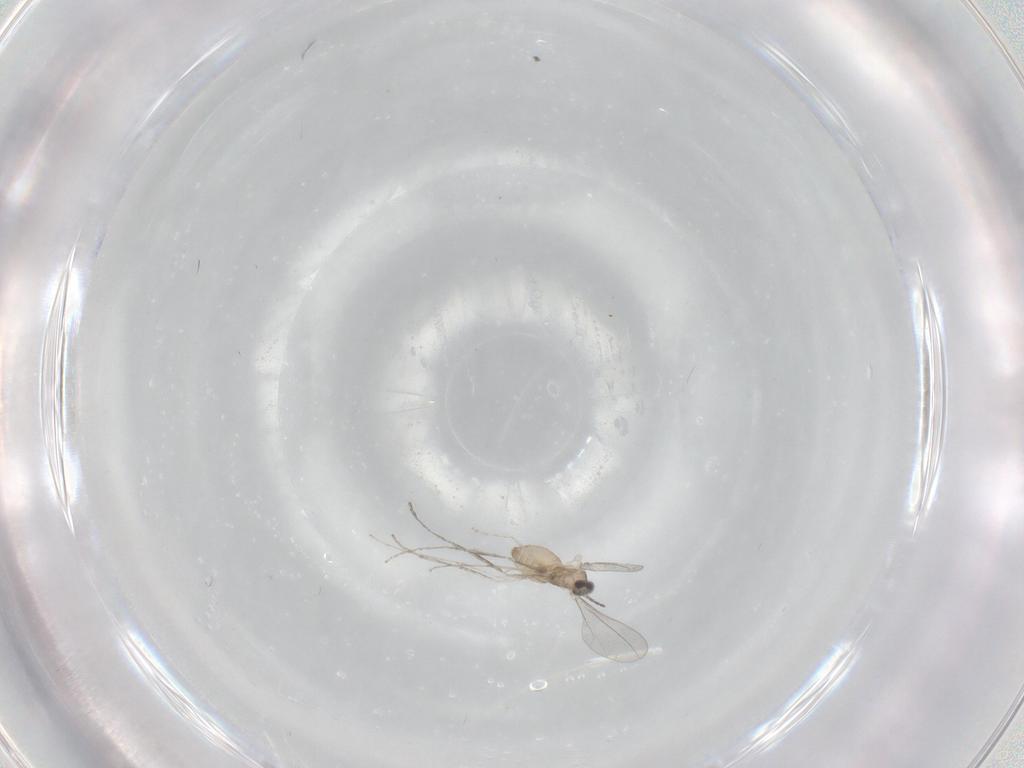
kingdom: Animalia
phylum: Arthropoda
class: Insecta
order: Diptera
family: Cecidomyiidae
